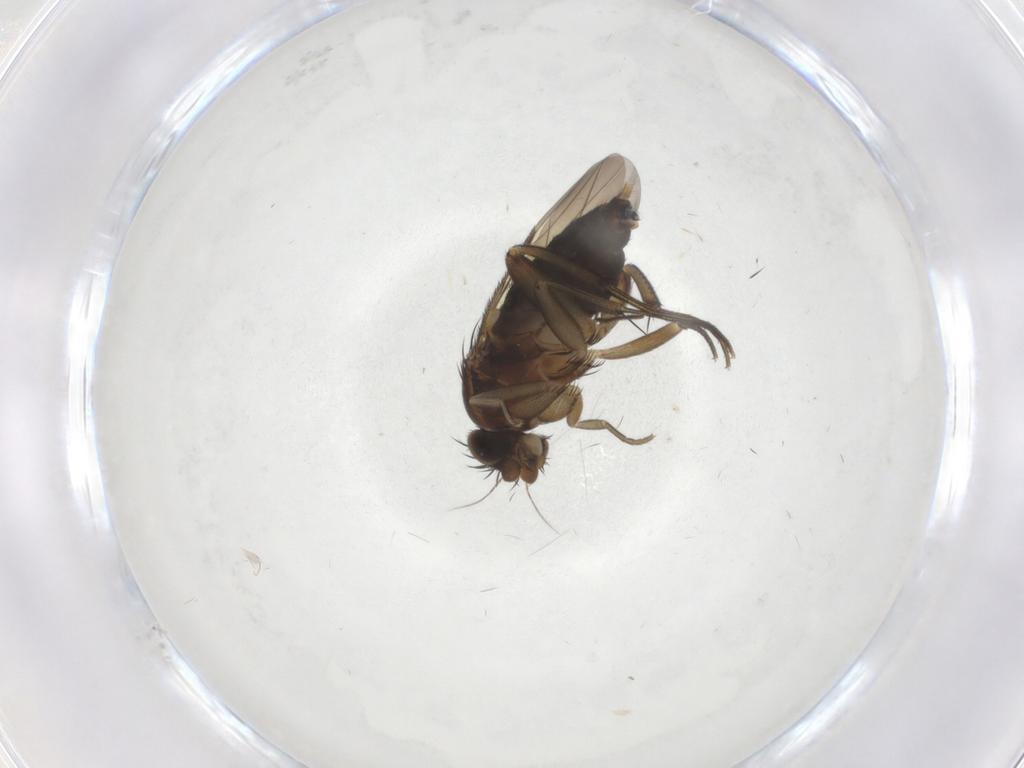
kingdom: Animalia
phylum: Arthropoda
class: Insecta
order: Diptera
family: Phoridae
